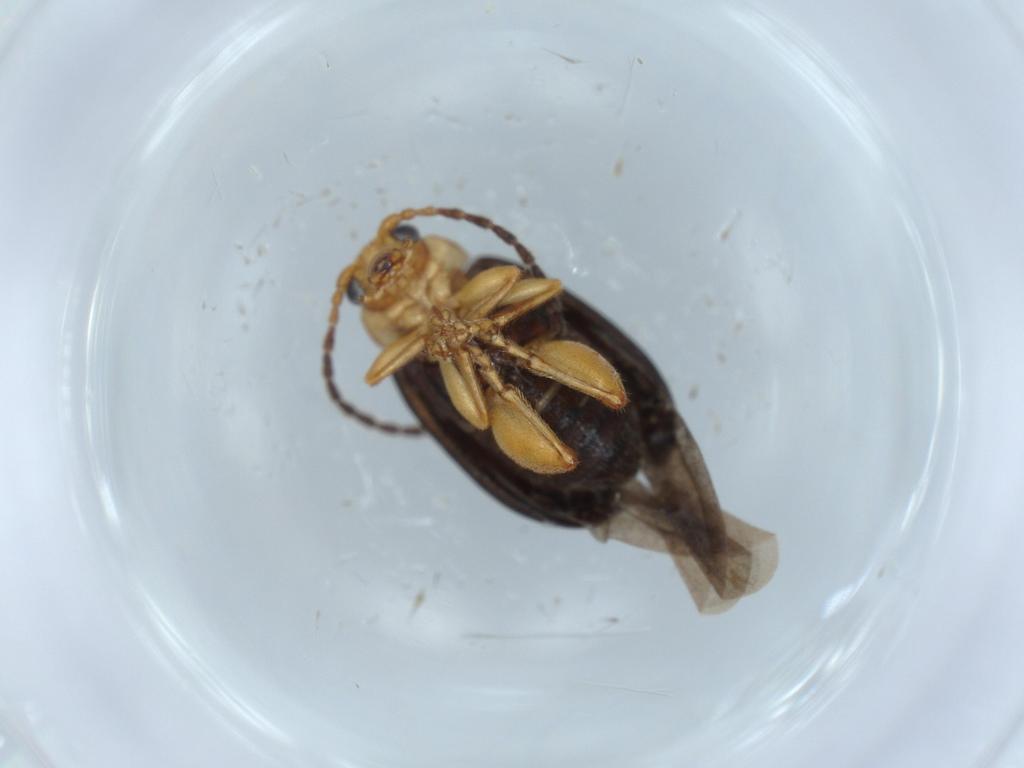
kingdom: Animalia
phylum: Arthropoda
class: Insecta
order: Coleoptera
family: Chrysomelidae
